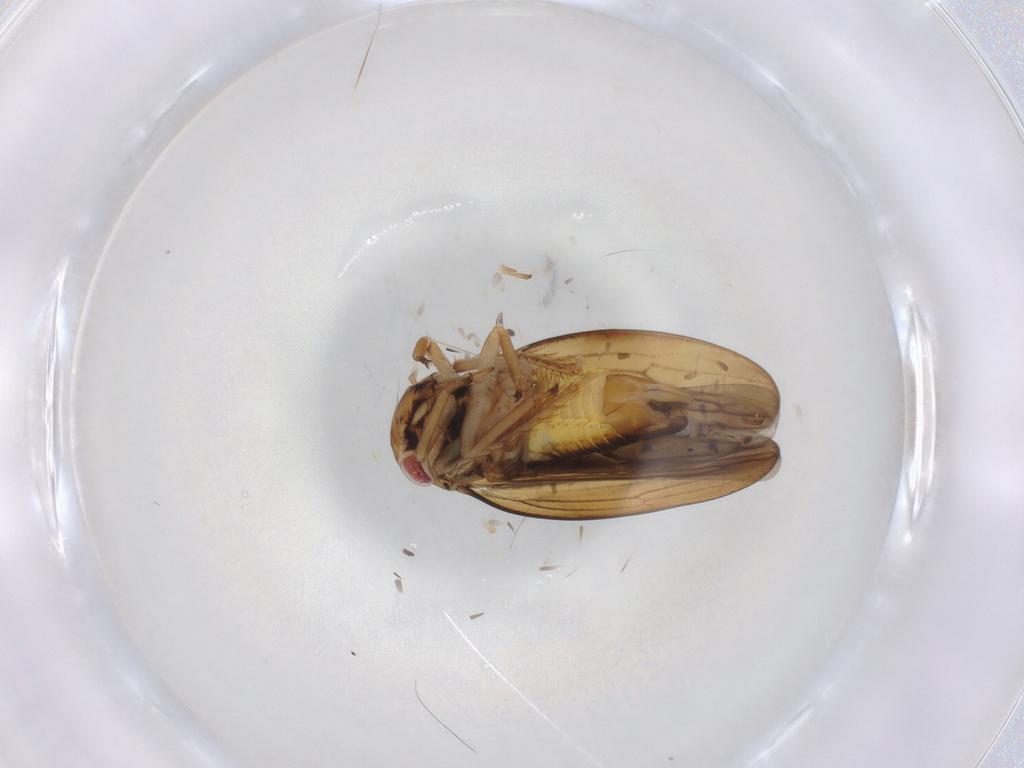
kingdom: Animalia
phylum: Arthropoda
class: Insecta
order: Hemiptera
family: Cicadellidae
